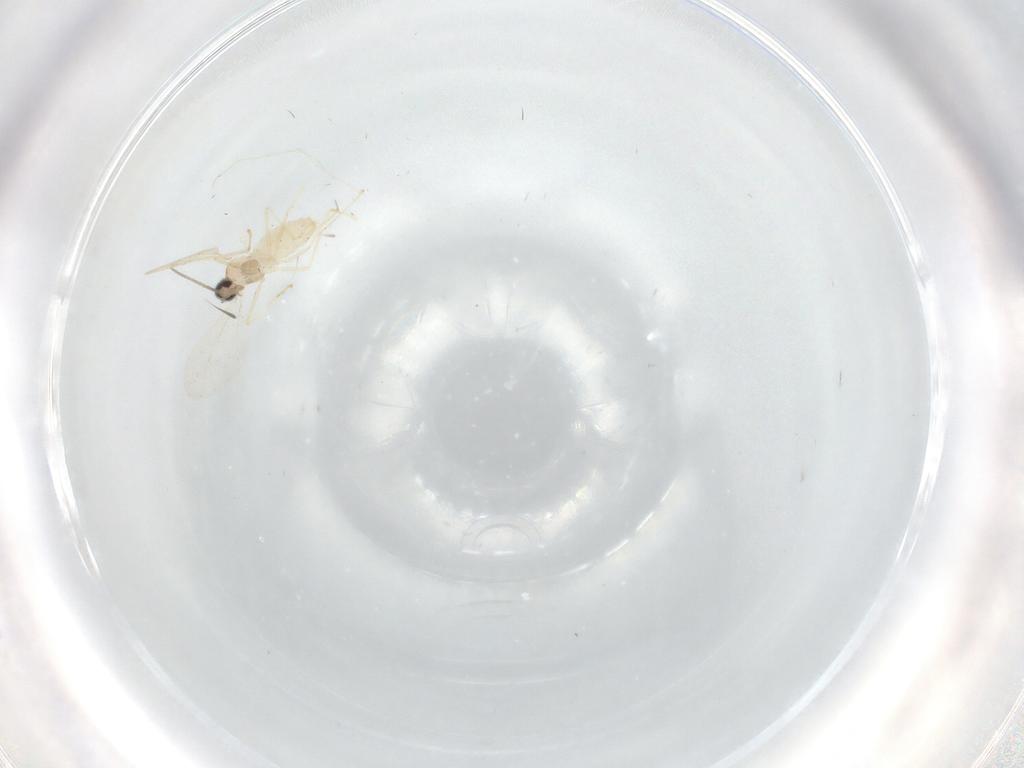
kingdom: Animalia
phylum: Arthropoda
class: Insecta
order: Diptera
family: Cecidomyiidae
